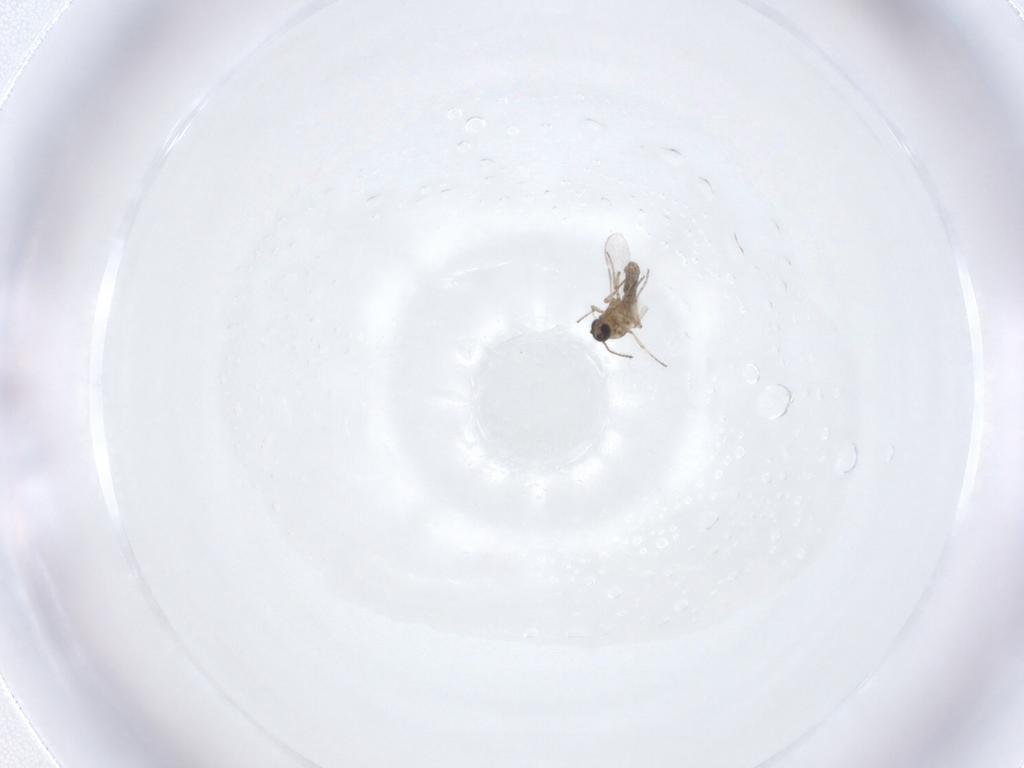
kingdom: Animalia
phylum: Arthropoda
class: Insecta
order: Diptera
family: Ceratopogonidae
